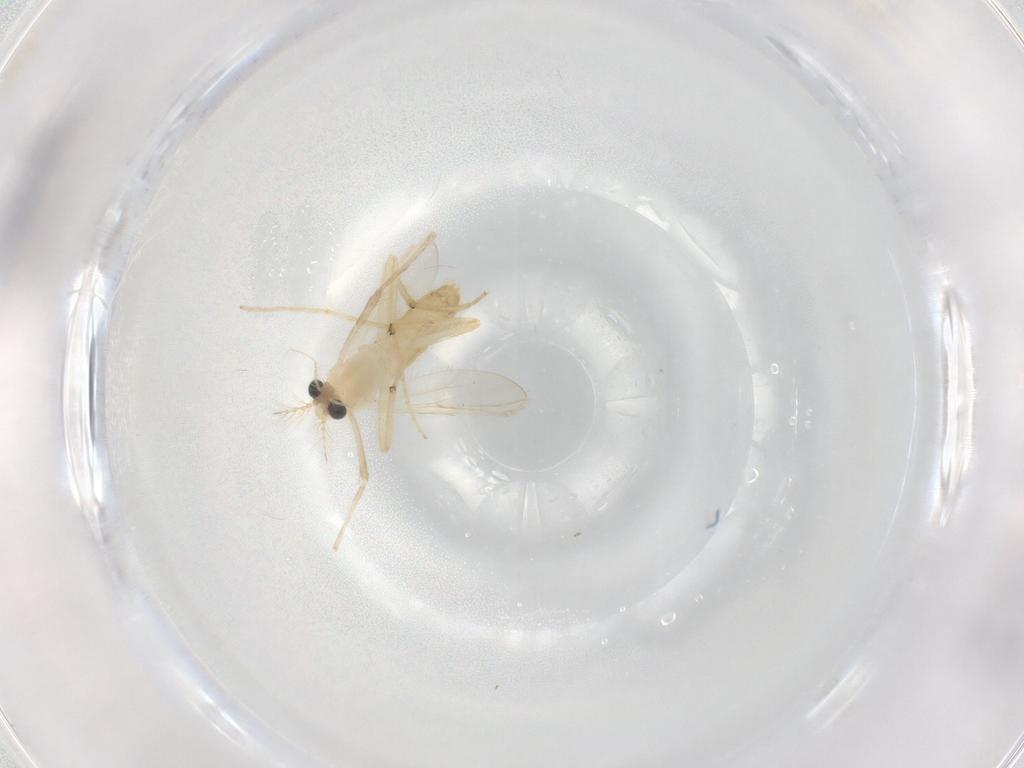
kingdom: Animalia
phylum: Arthropoda
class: Insecta
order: Diptera
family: Chironomidae
